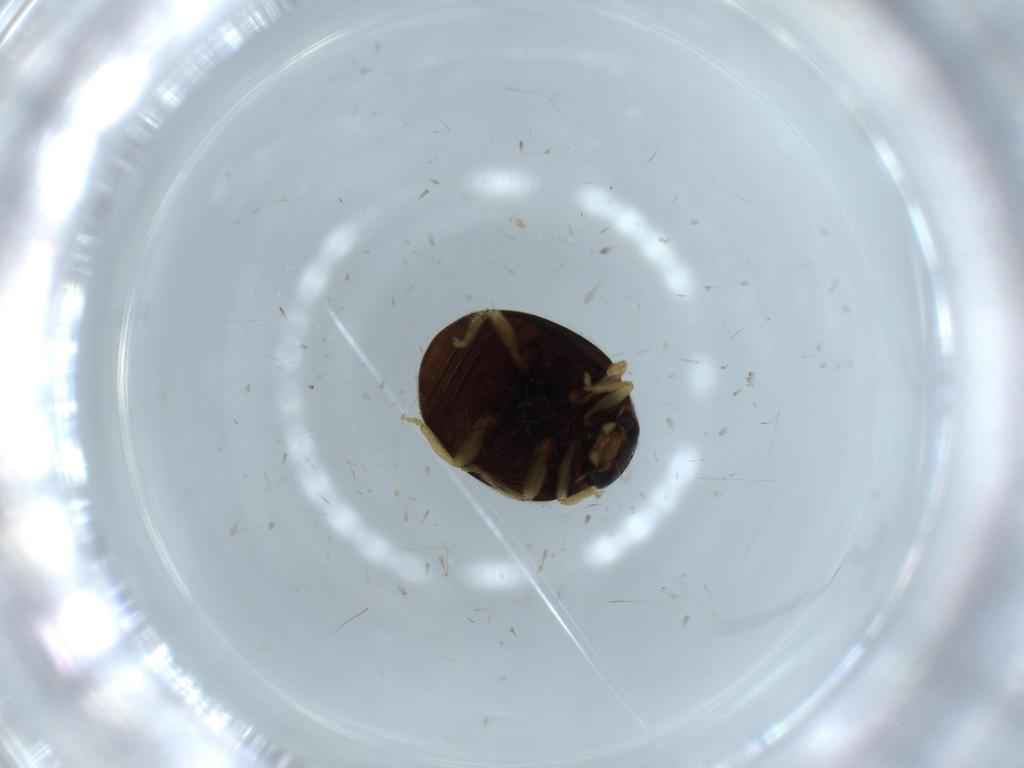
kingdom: Animalia
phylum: Arthropoda
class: Insecta
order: Coleoptera
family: Coccinellidae
